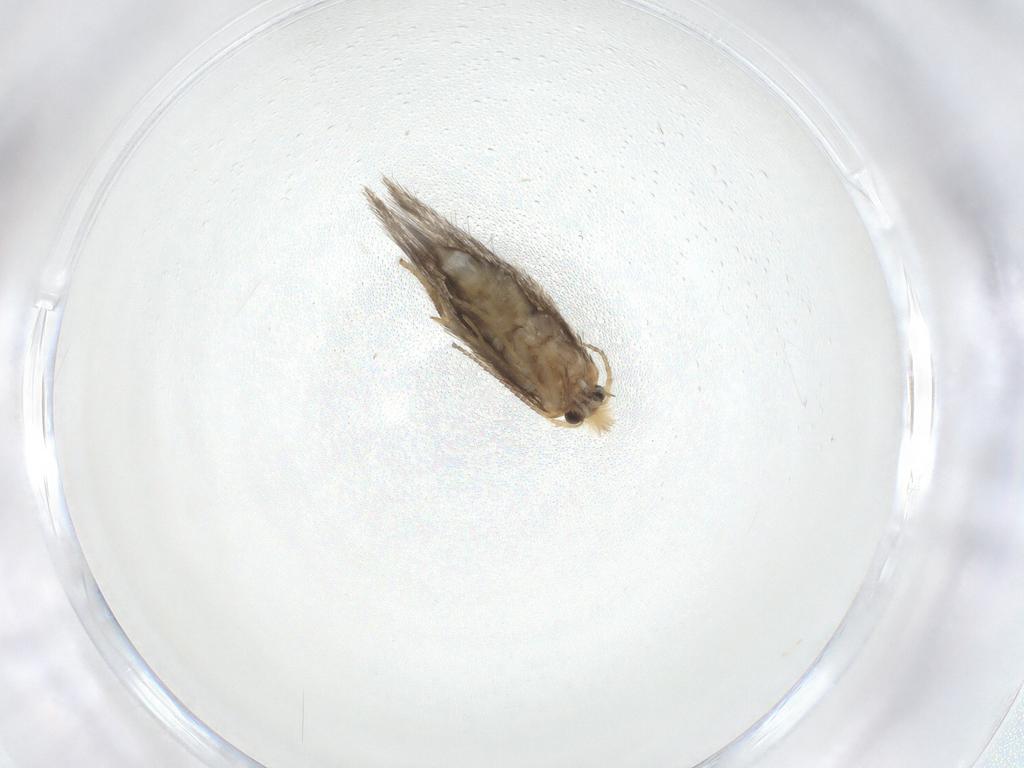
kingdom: Animalia
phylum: Arthropoda
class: Insecta
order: Lepidoptera
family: Nepticulidae
